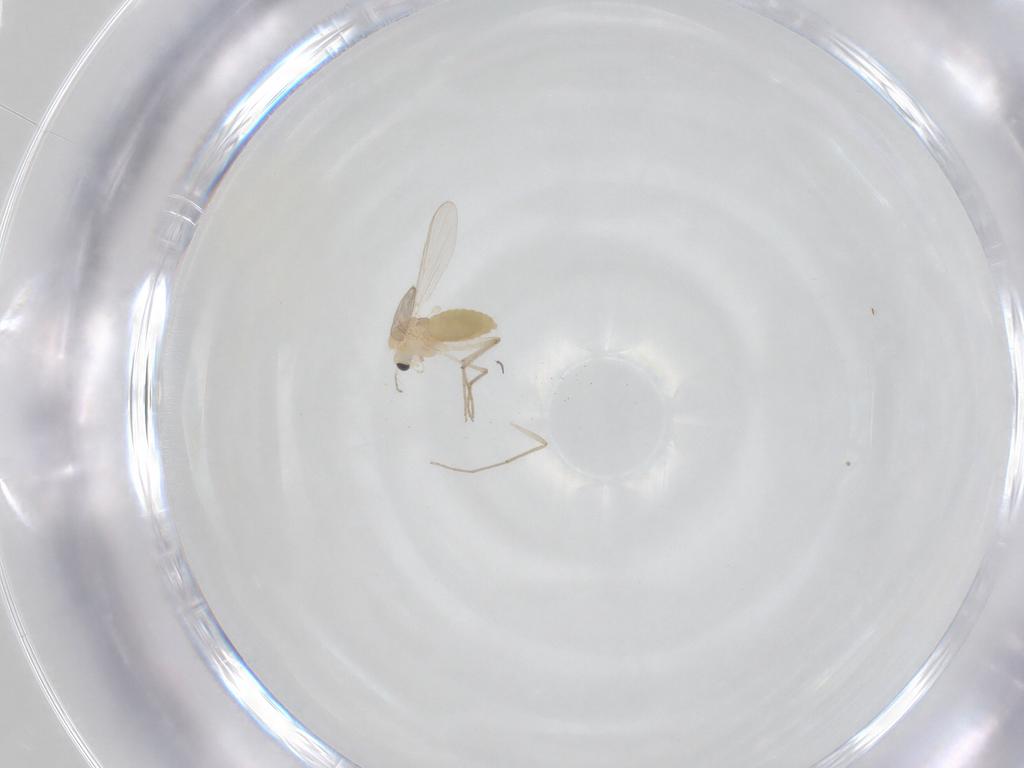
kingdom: Animalia
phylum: Arthropoda
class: Insecta
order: Diptera
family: Chironomidae
